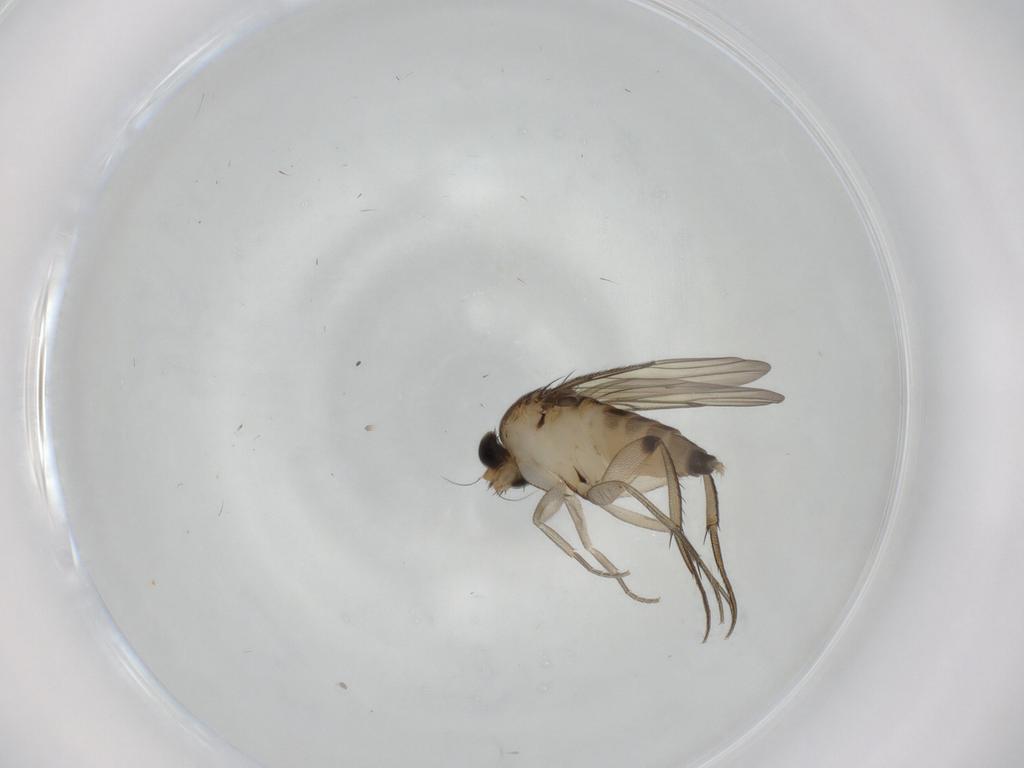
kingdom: Animalia
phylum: Arthropoda
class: Insecta
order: Diptera
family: Phoridae
